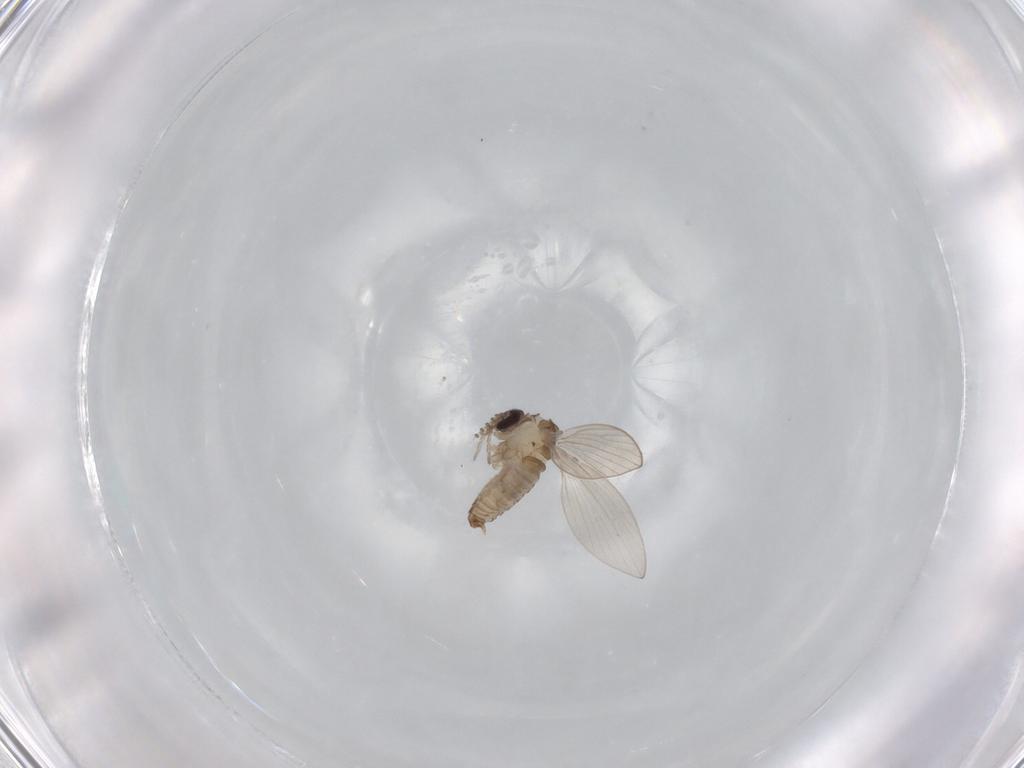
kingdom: Animalia
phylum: Arthropoda
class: Insecta
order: Diptera
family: Psychodidae
